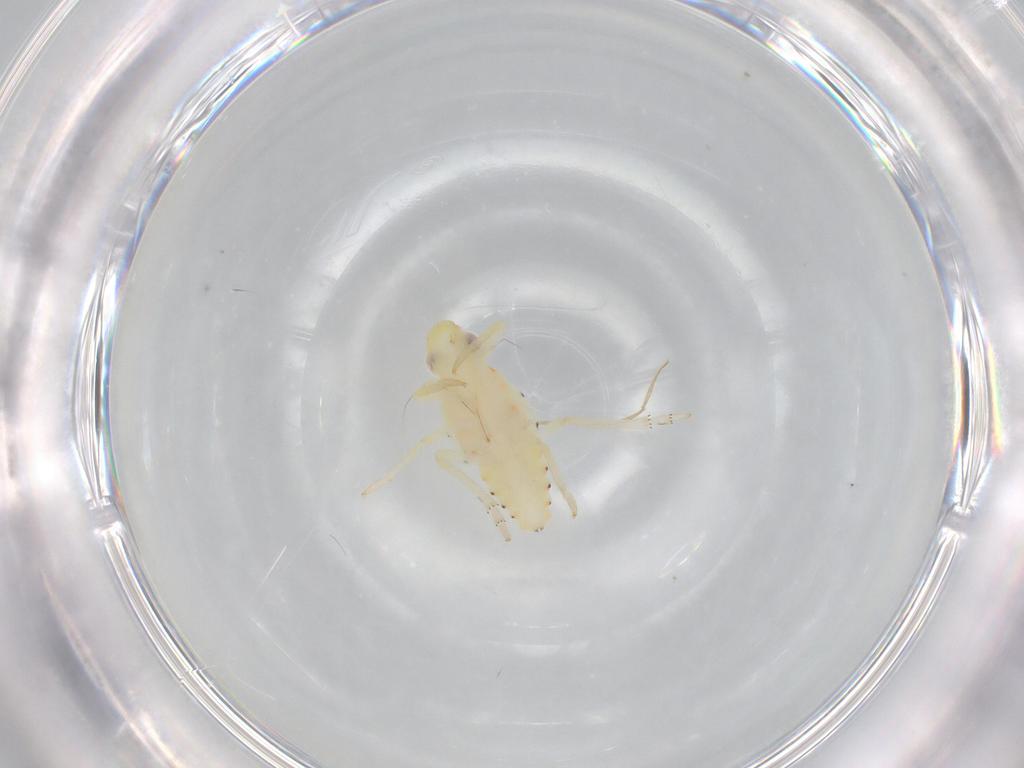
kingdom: Animalia
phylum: Arthropoda
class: Insecta
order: Hemiptera
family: Tropiduchidae
